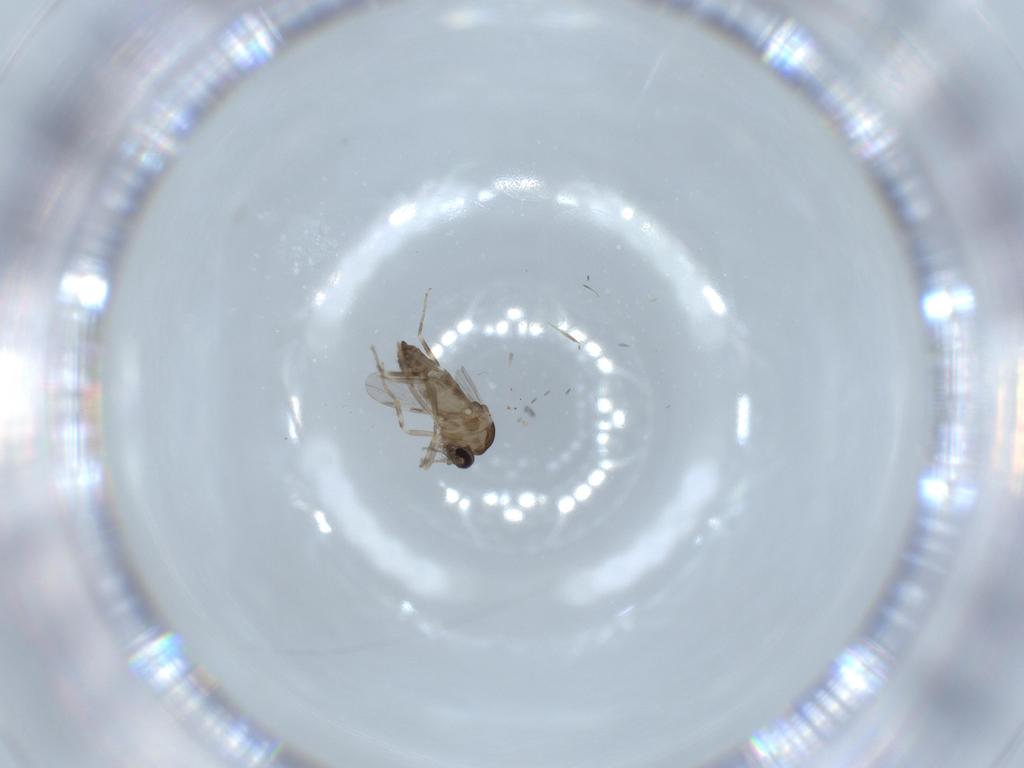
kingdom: Animalia
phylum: Arthropoda
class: Insecta
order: Diptera
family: Ceratopogonidae
